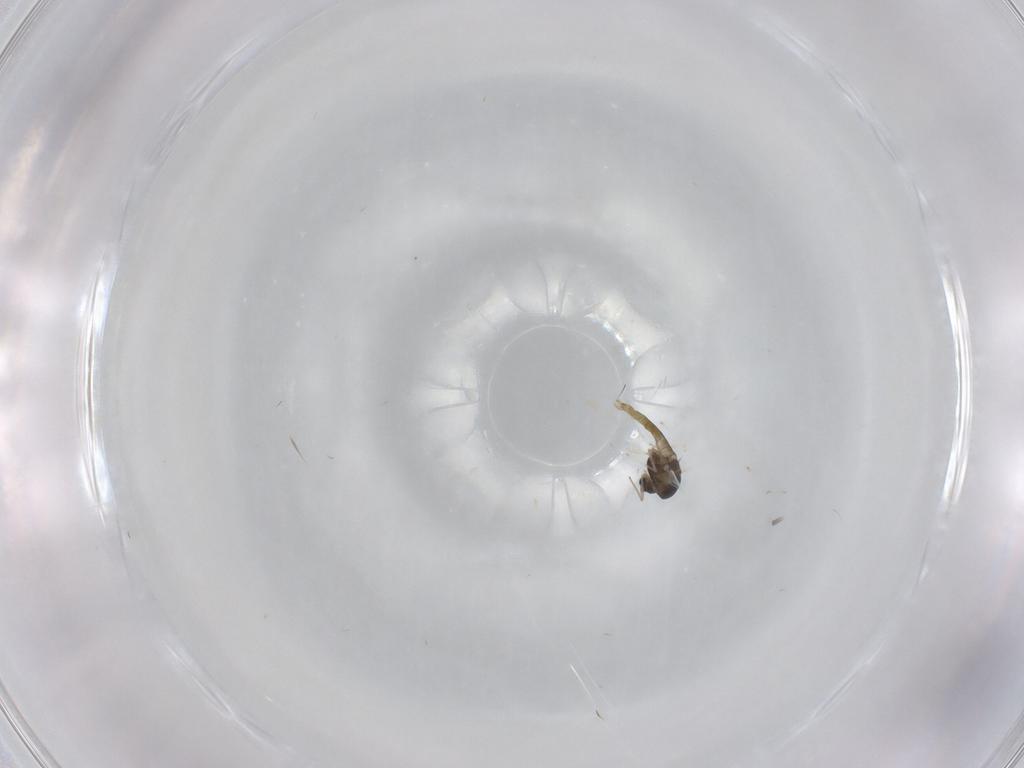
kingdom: Animalia
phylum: Arthropoda
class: Insecta
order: Diptera
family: Chironomidae
